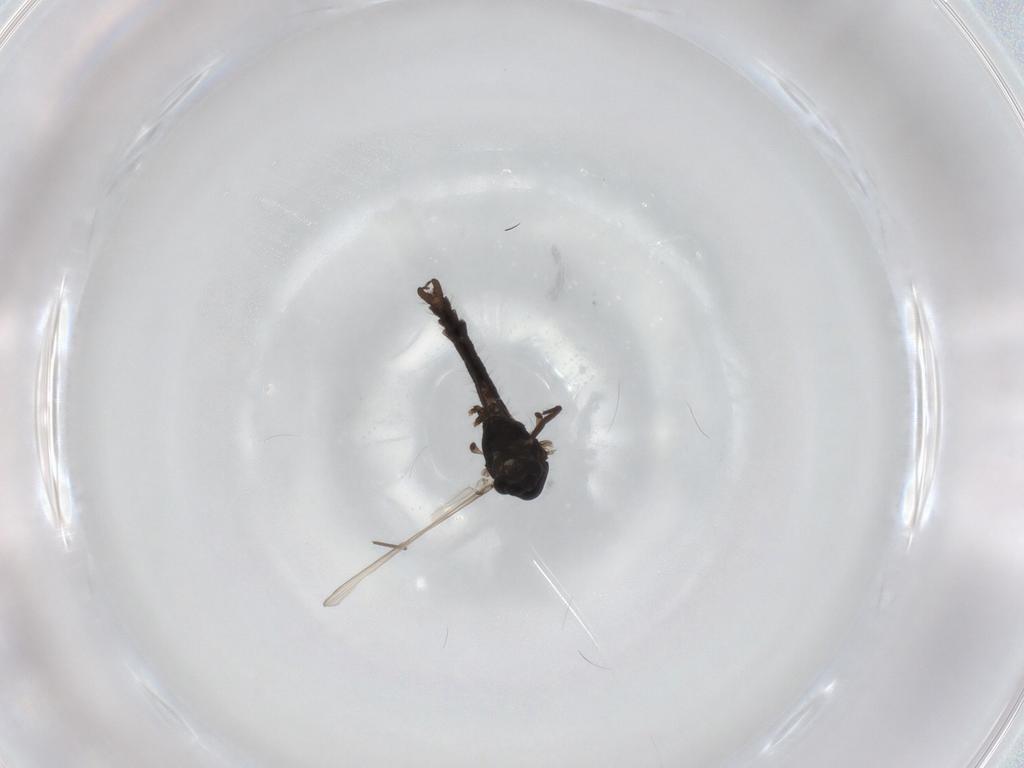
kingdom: Animalia
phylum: Arthropoda
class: Insecta
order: Diptera
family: Chironomidae
